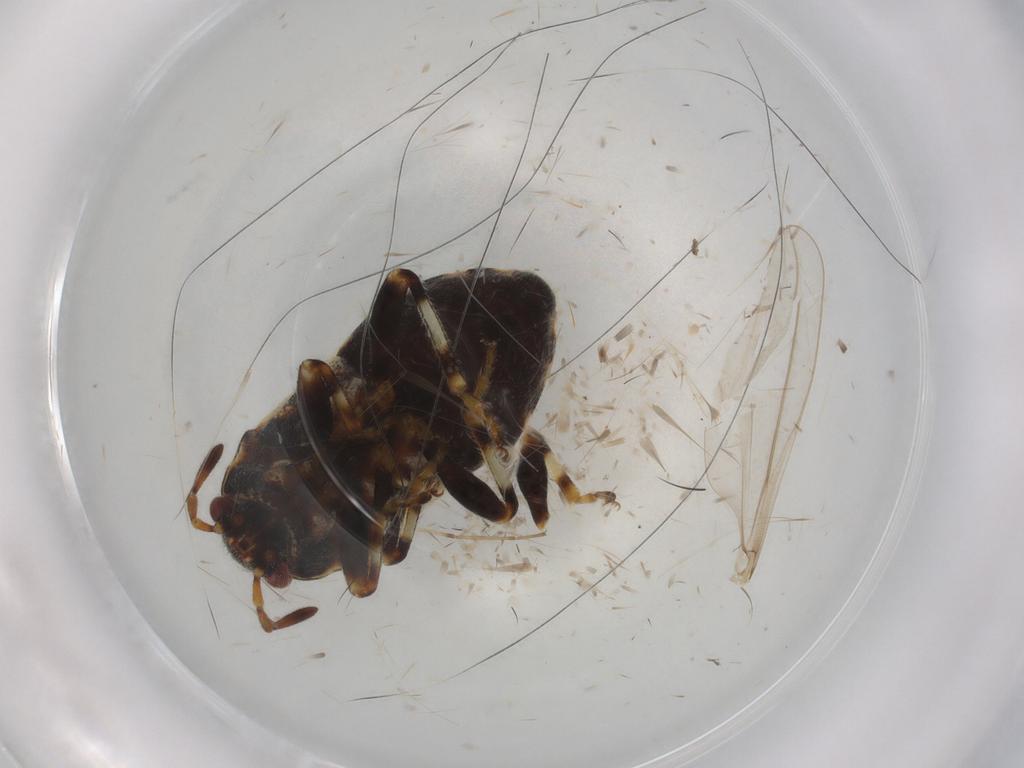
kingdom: Animalia
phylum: Arthropoda
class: Insecta
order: Hemiptera
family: Lygaeidae
